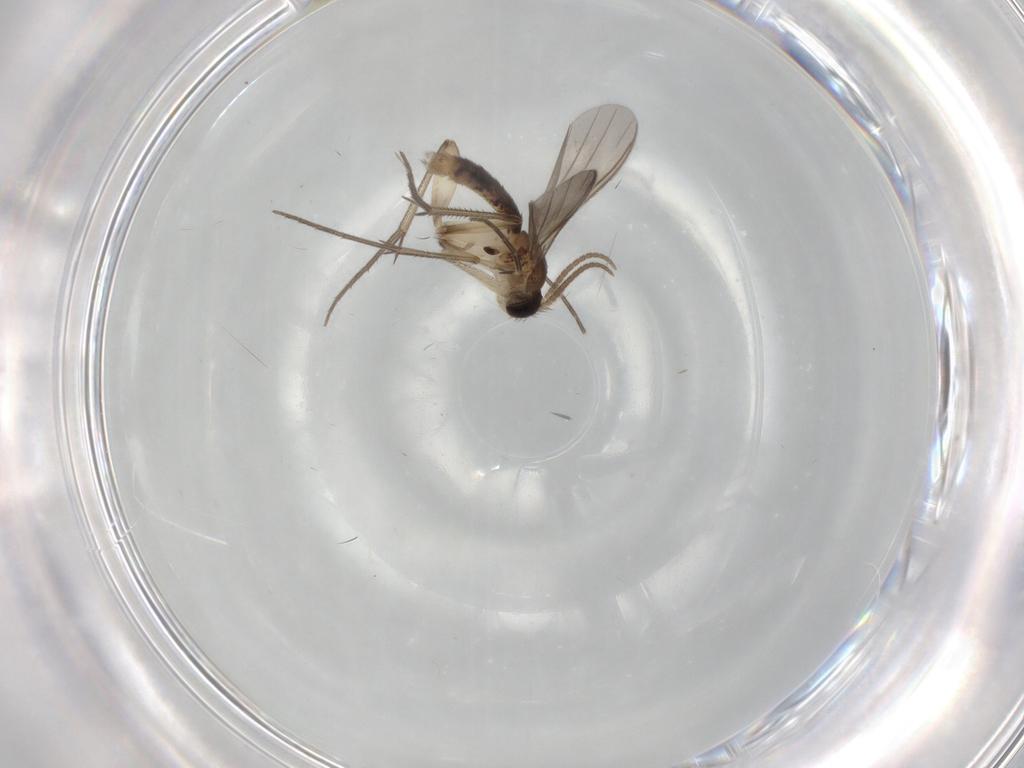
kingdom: Animalia
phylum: Arthropoda
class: Insecta
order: Diptera
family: Mycetophilidae
